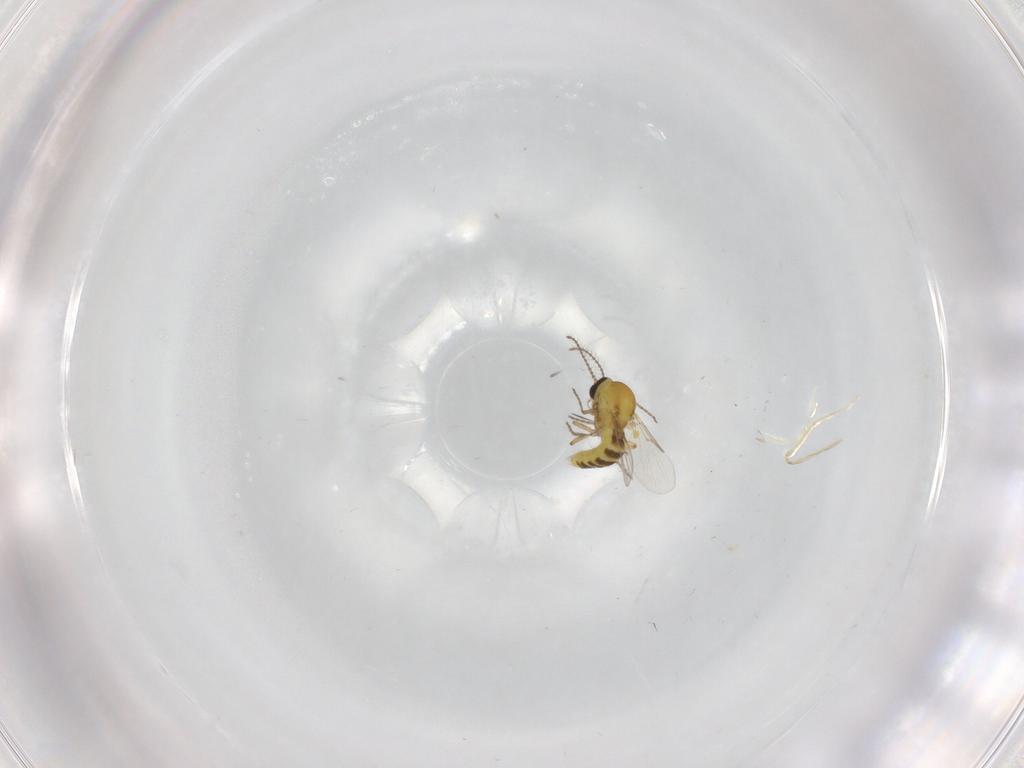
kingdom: Animalia
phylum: Arthropoda
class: Insecta
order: Diptera
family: Ceratopogonidae
